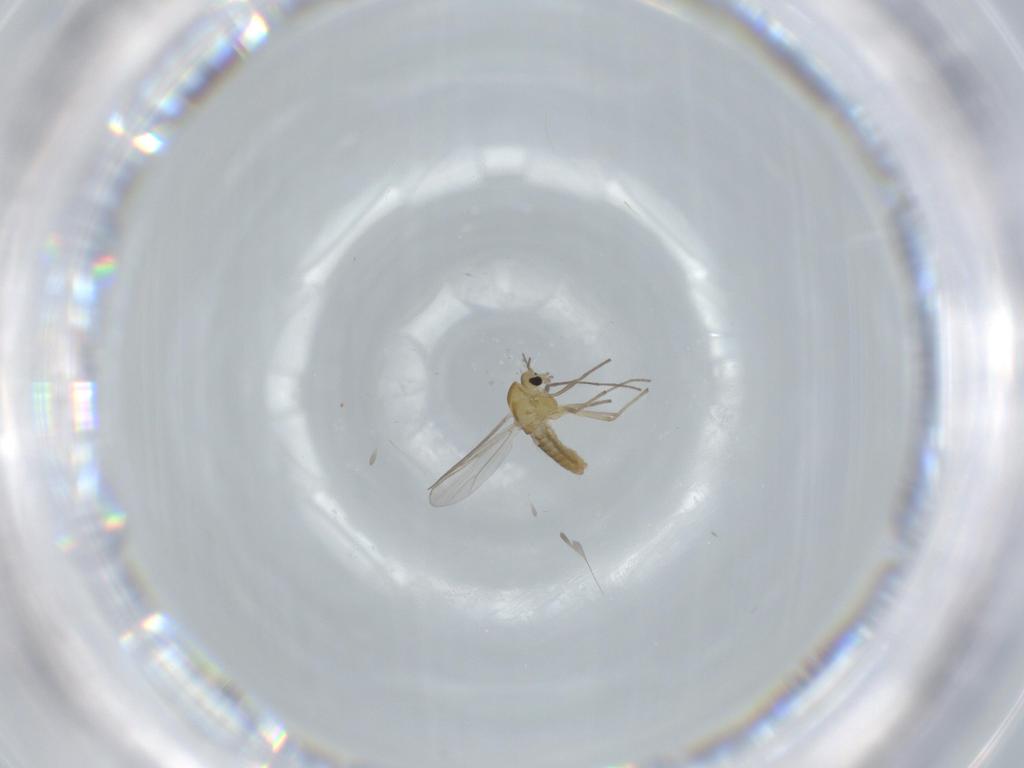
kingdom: Animalia
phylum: Arthropoda
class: Insecta
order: Diptera
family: Chironomidae
